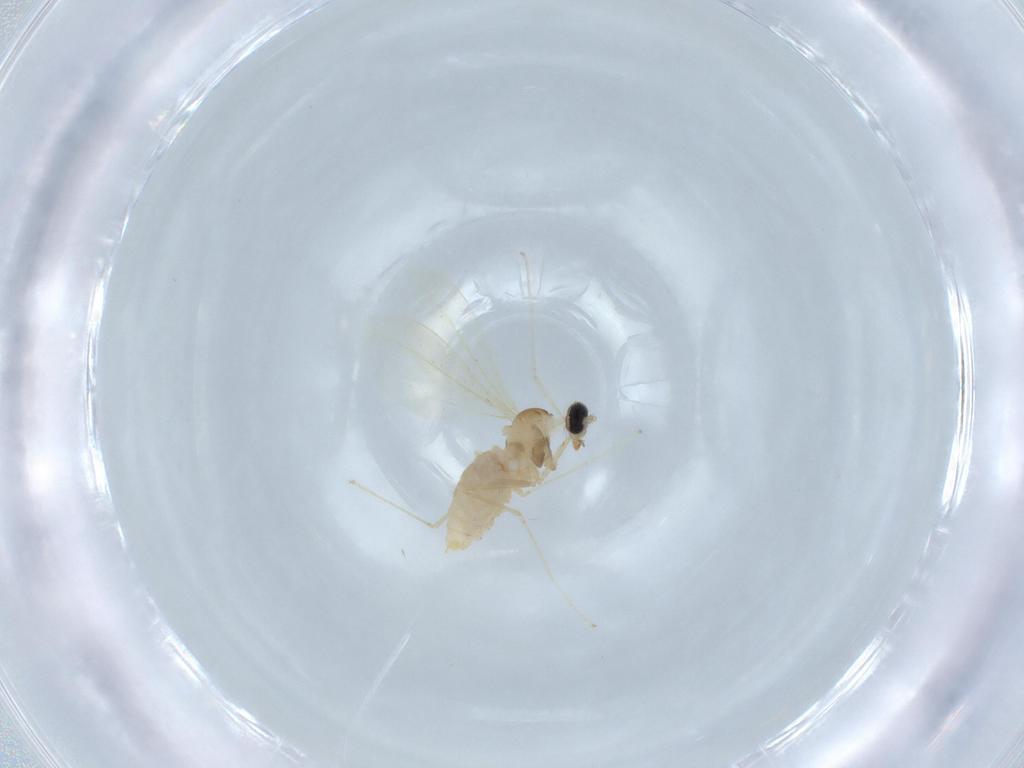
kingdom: Animalia
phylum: Arthropoda
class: Insecta
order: Diptera
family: Cecidomyiidae
